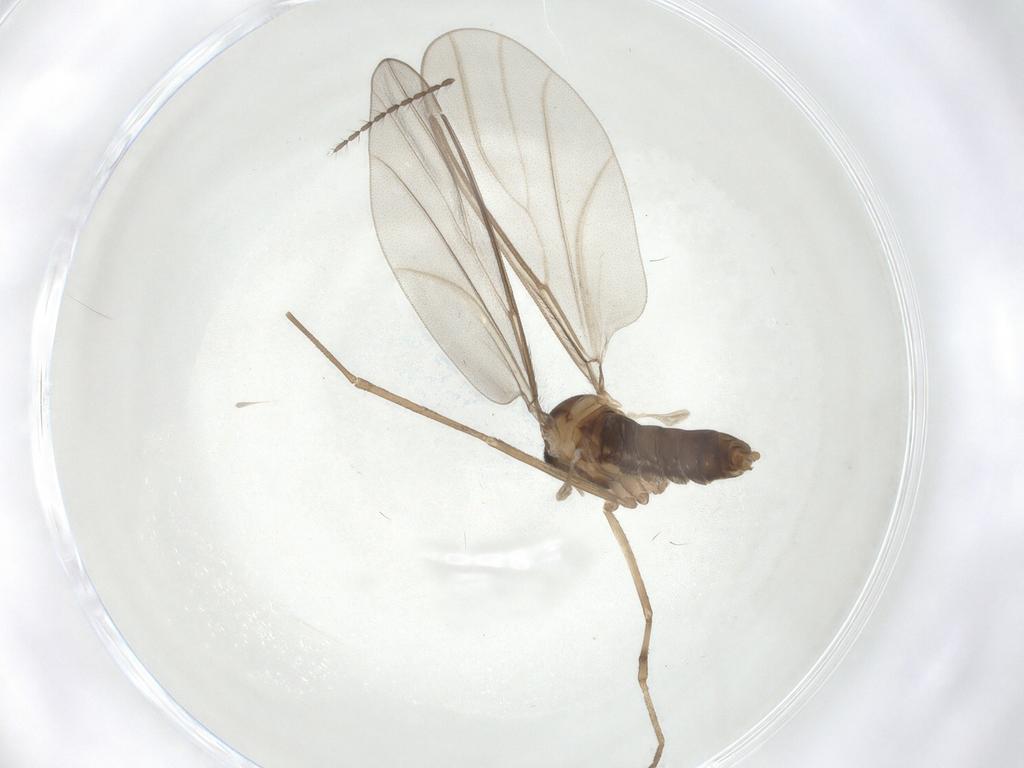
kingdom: Animalia
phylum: Arthropoda
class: Insecta
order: Diptera
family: Cecidomyiidae
